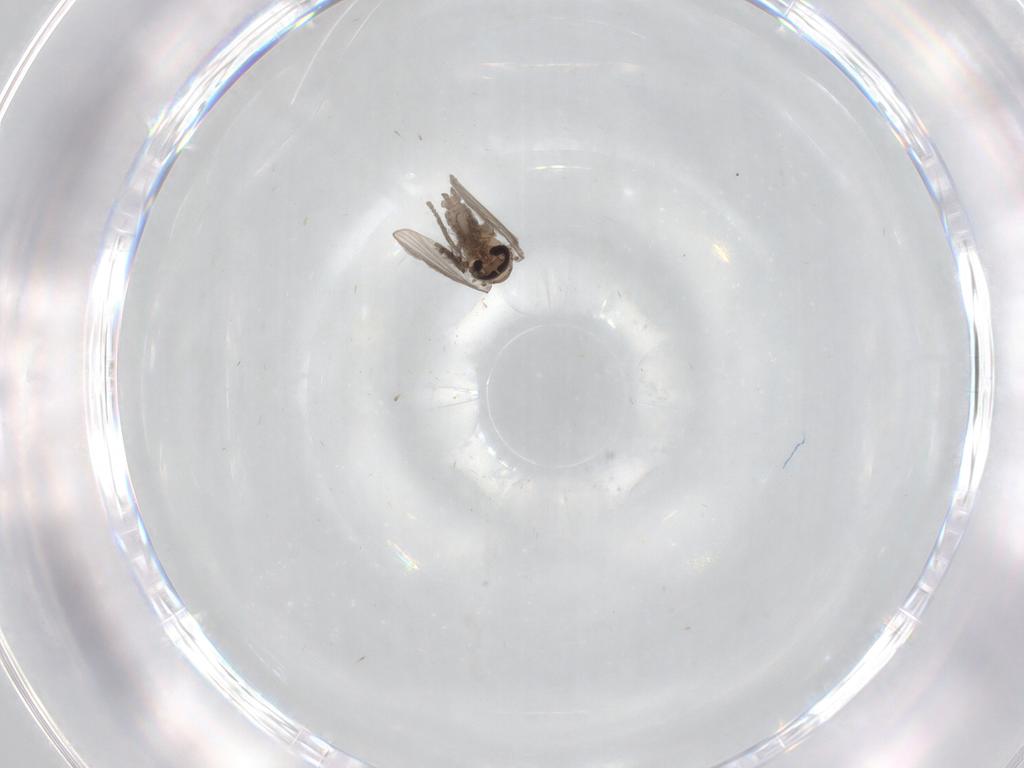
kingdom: Animalia
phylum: Arthropoda
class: Insecta
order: Diptera
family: Psychodidae
